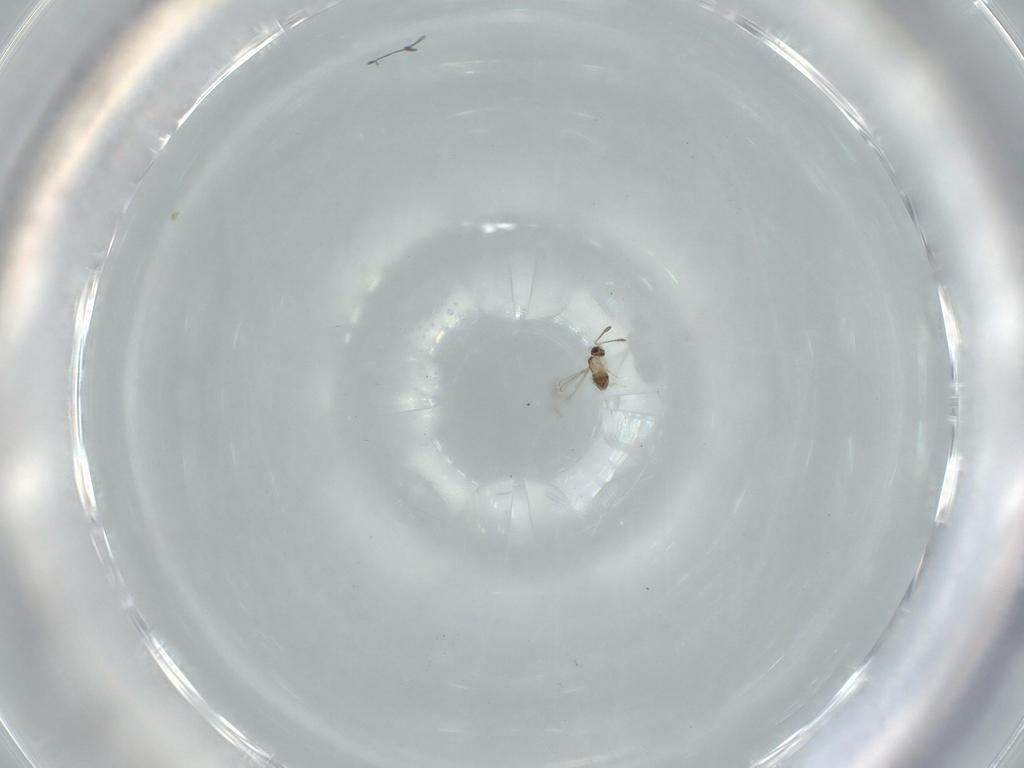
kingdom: Animalia
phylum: Arthropoda
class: Insecta
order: Hymenoptera
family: Trichogrammatidae
